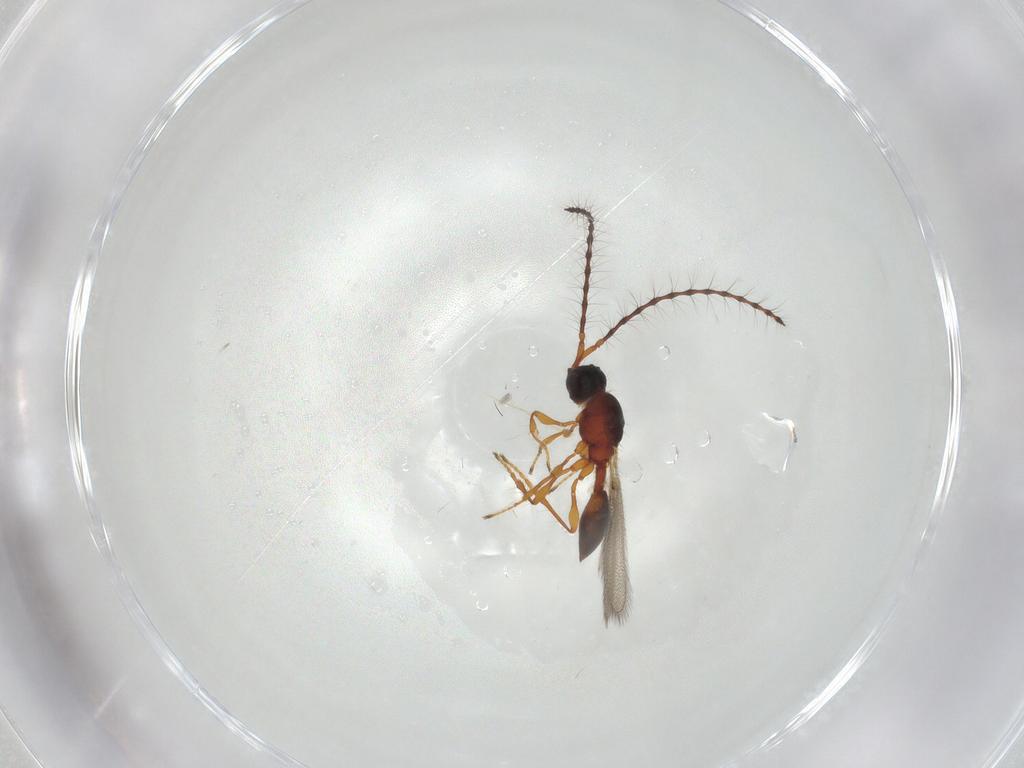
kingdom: Animalia
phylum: Arthropoda
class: Insecta
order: Hymenoptera
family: Diapriidae
